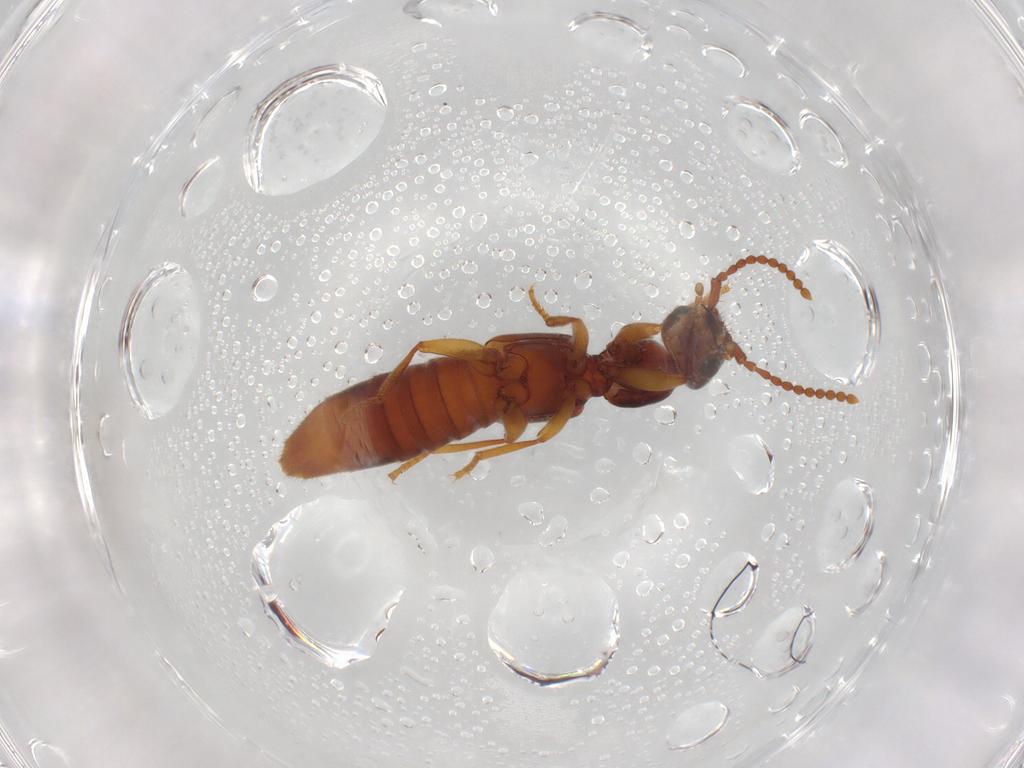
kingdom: Animalia
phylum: Arthropoda
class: Insecta
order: Coleoptera
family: Staphylinidae
